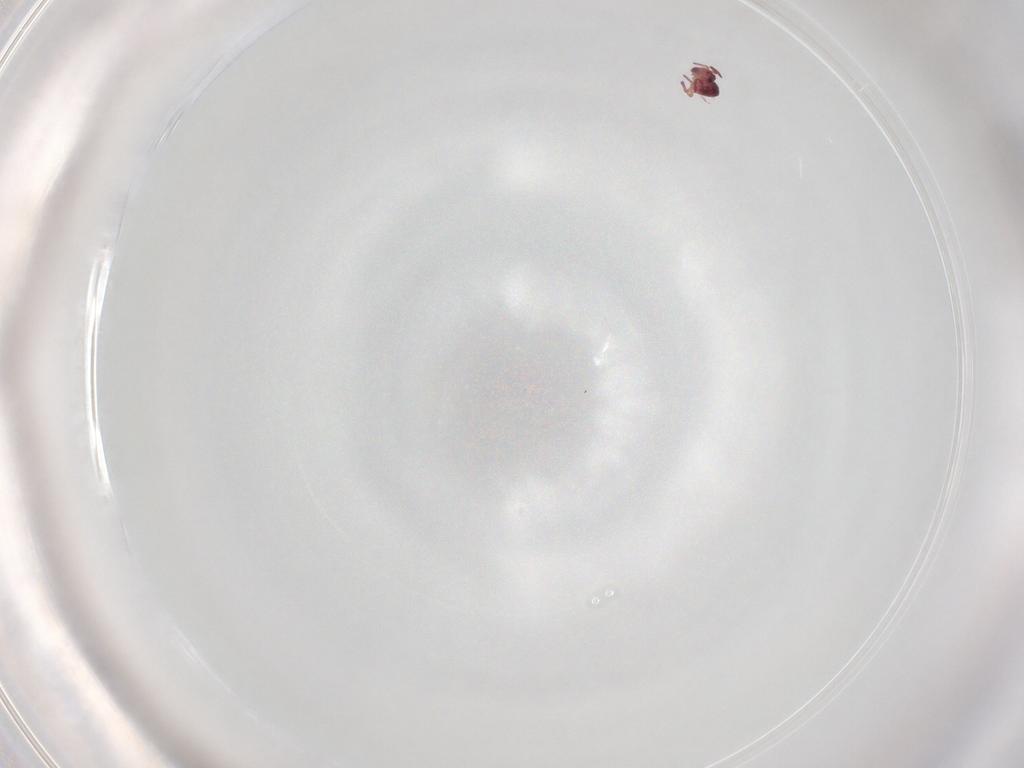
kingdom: Animalia
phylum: Arthropoda
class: Collembola
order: Symphypleona
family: Sminthurididae
